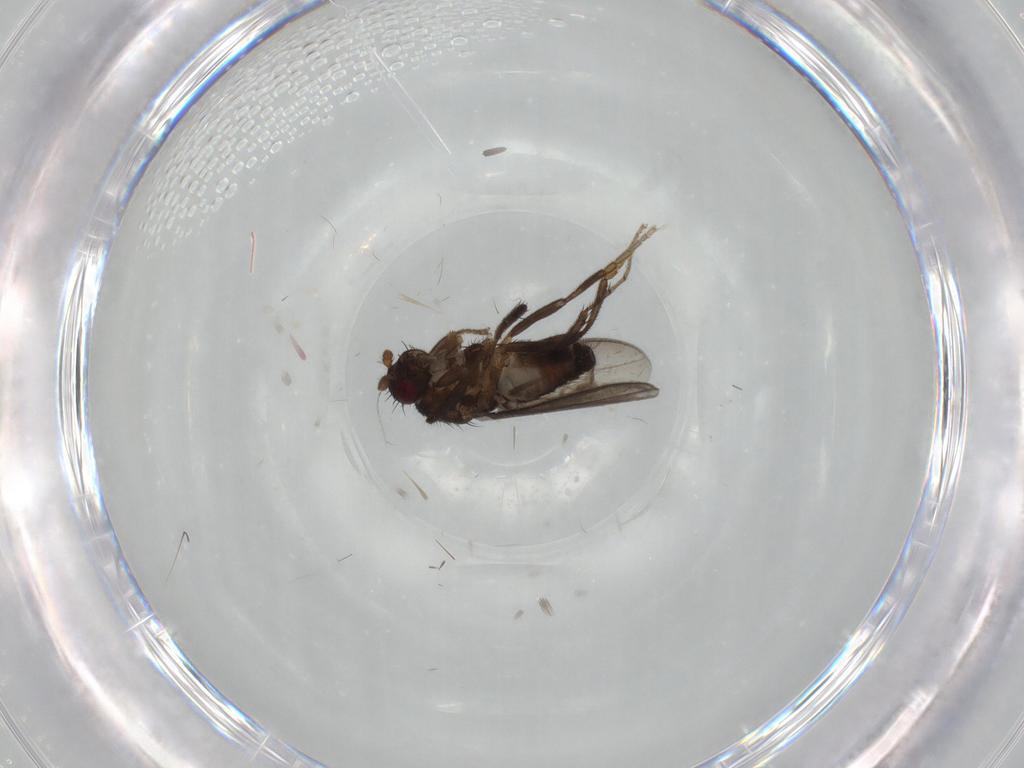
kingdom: Animalia
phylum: Arthropoda
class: Insecta
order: Diptera
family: Sphaeroceridae
